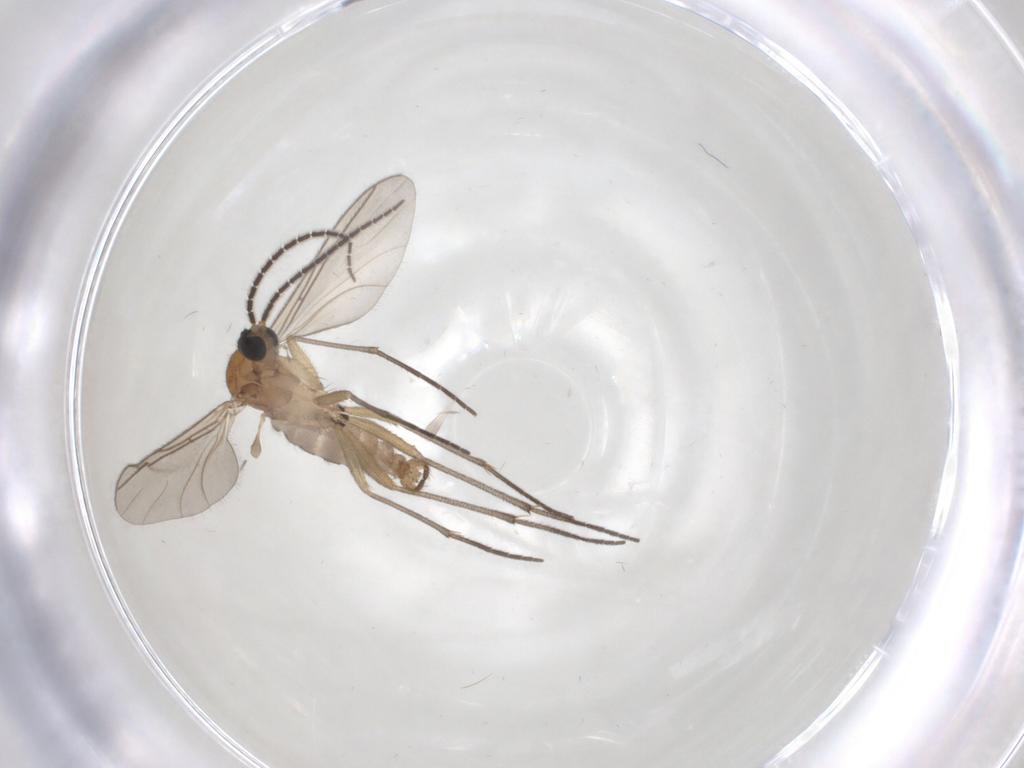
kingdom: Animalia
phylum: Arthropoda
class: Insecta
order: Diptera
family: Sciaridae
